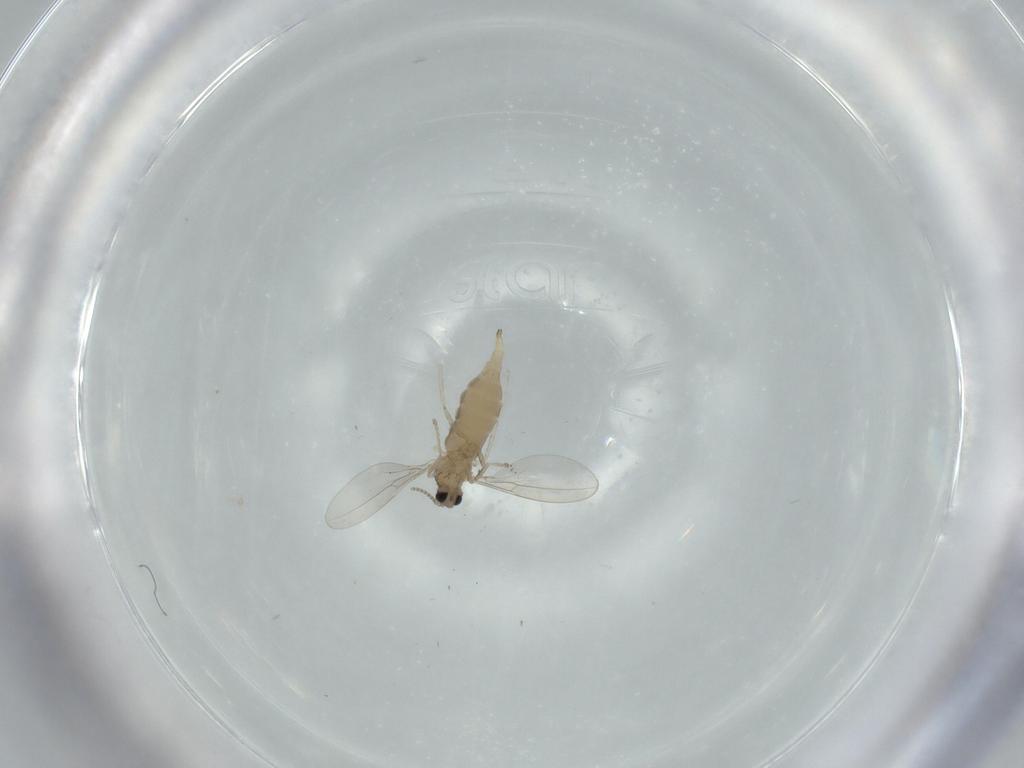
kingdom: Animalia
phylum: Arthropoda
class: Insecta
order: Diptera
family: Cecidomyiidae
